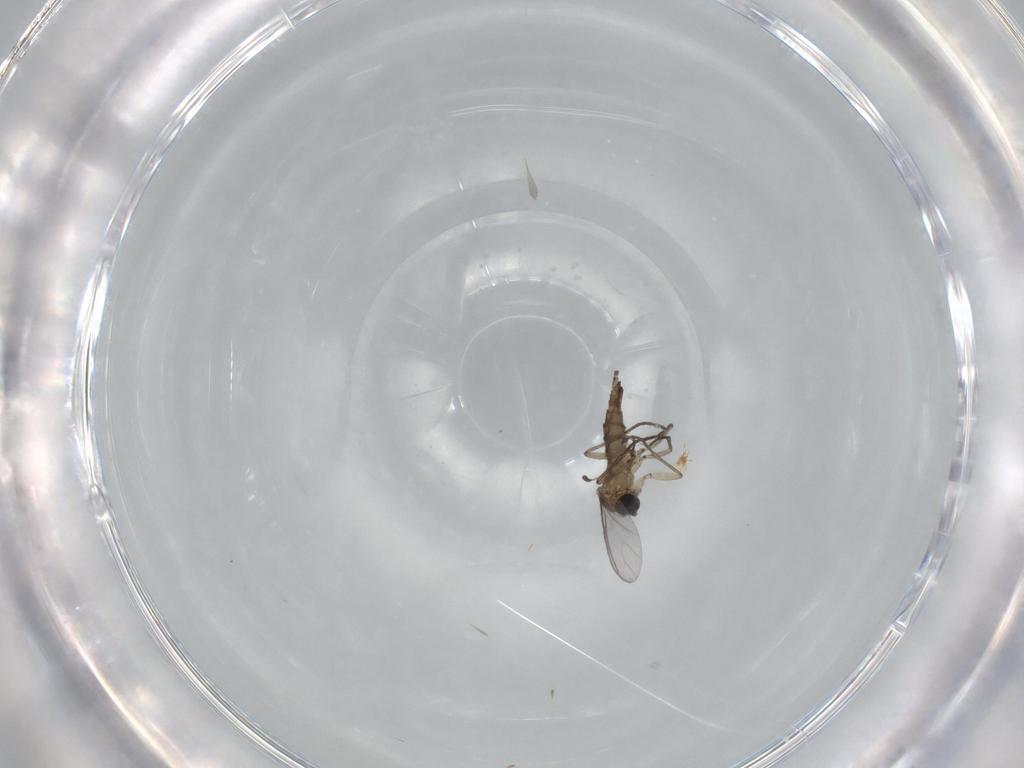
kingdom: Animalia
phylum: Arthropoda
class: Insecta
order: Diptera
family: Sciaridae
